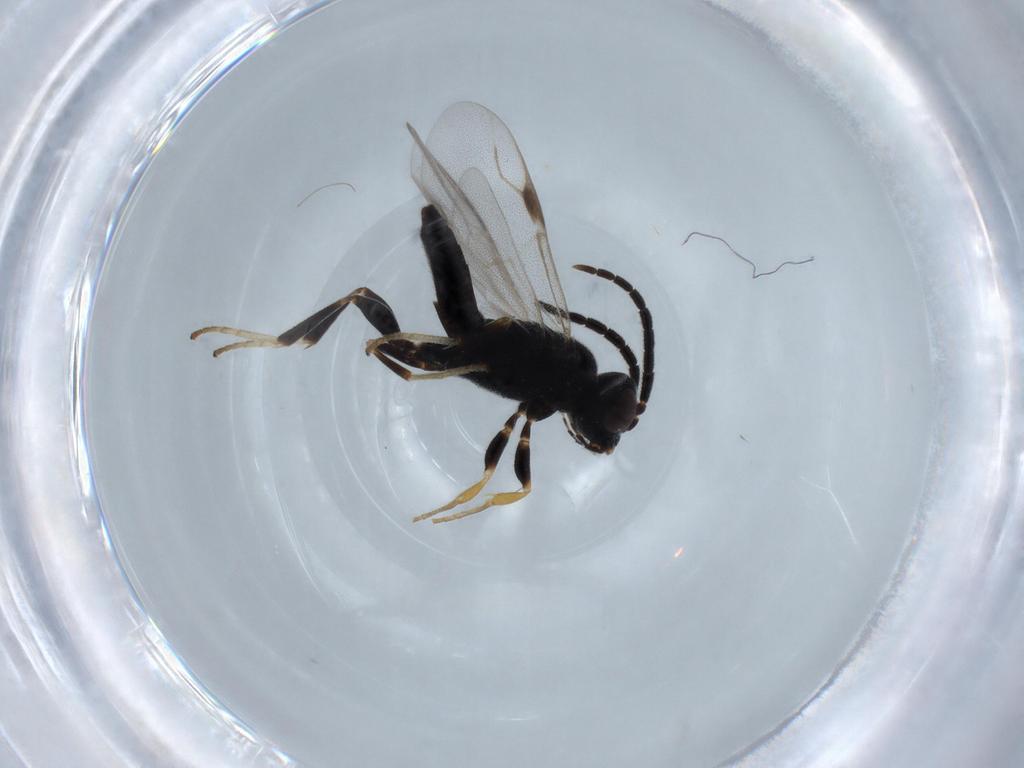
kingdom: Animalia
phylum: Arthropoda
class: Insecta
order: Hymenoptera
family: Dryinidae
